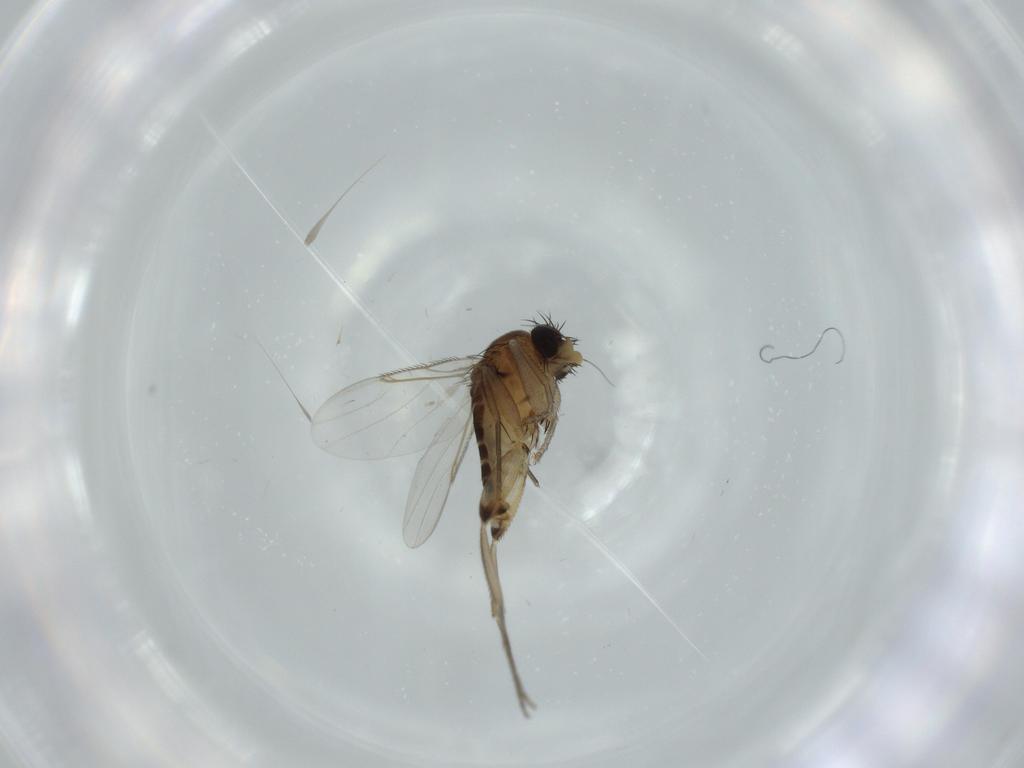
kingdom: Animalia
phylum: Arthropoda
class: Insecta
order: Diptera
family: Phoridae
